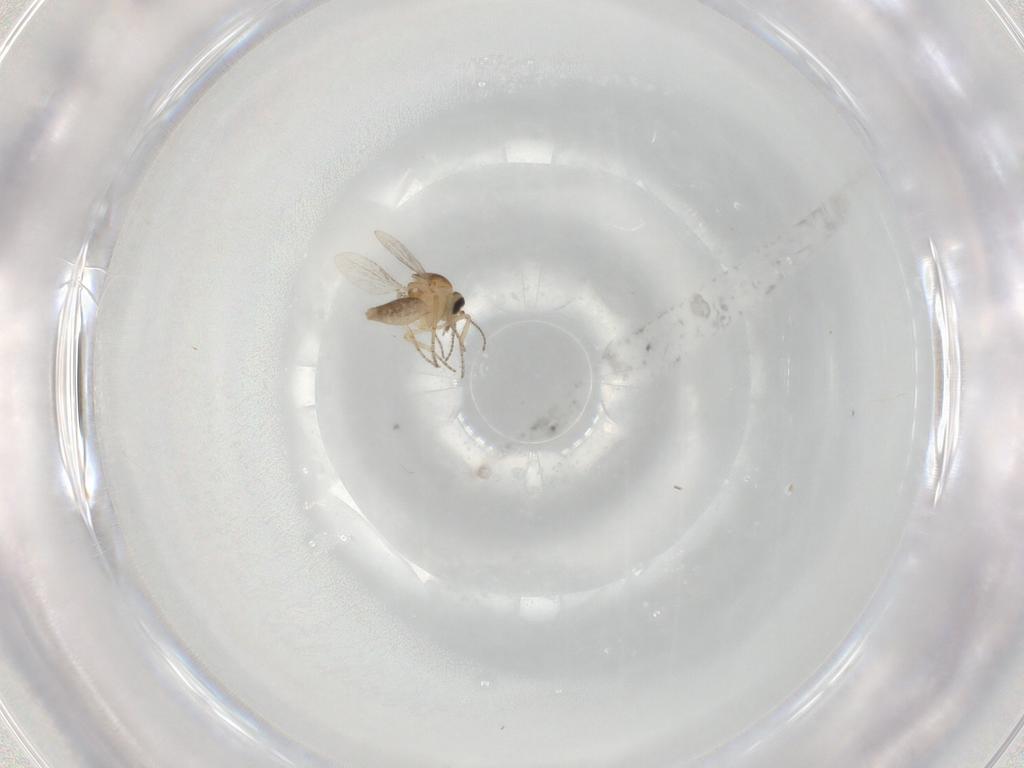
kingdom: Animalia
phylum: Arthropoda
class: Insecta
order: Diptera
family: Ceratopogonidae
